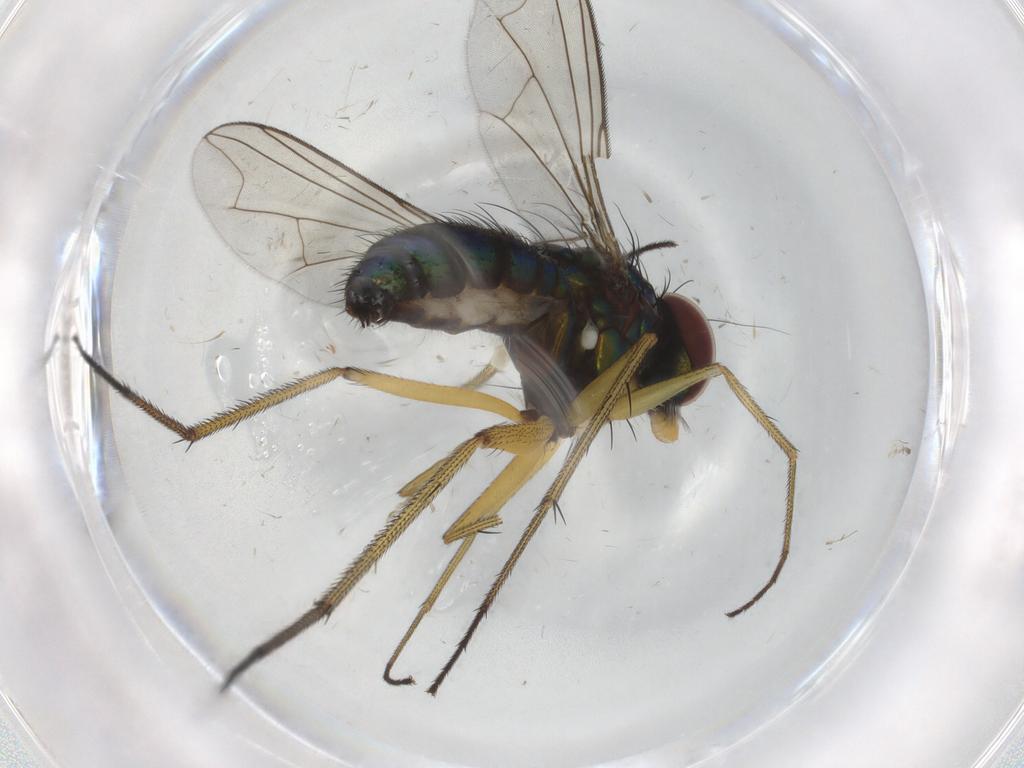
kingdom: Animalia
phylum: Arthropoda
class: Insecta
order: Diptera
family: Dolichopodidae
